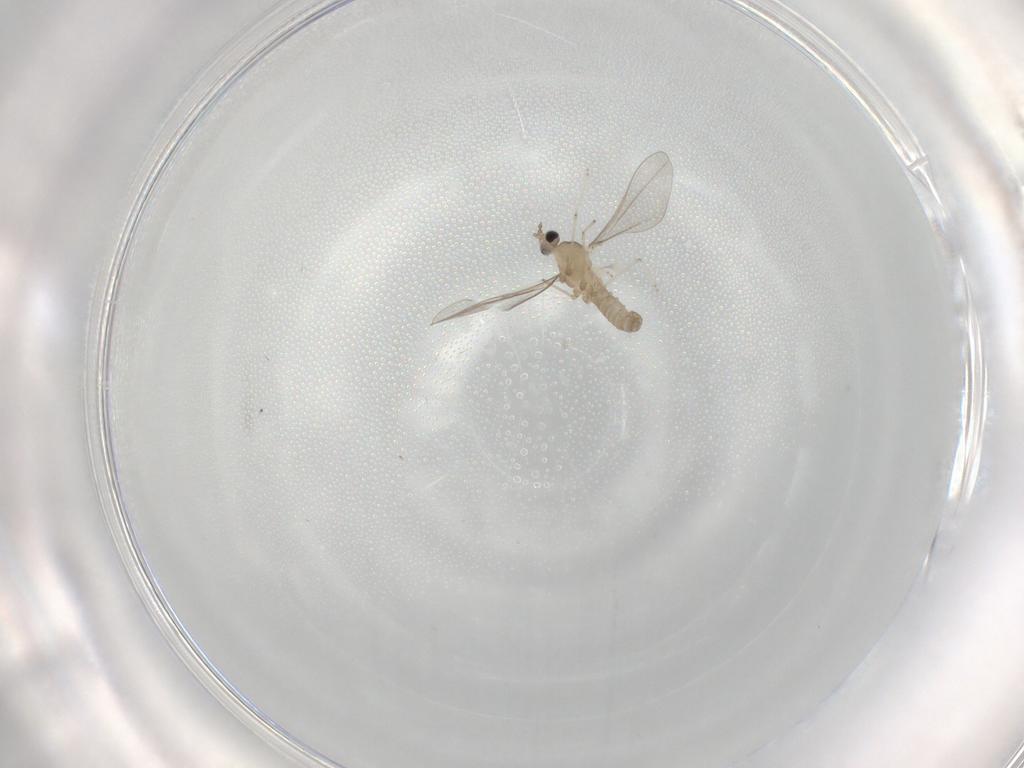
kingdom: Animalia
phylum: Arthropoda
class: Insecta
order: Diptera
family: Cecidomyiidae
